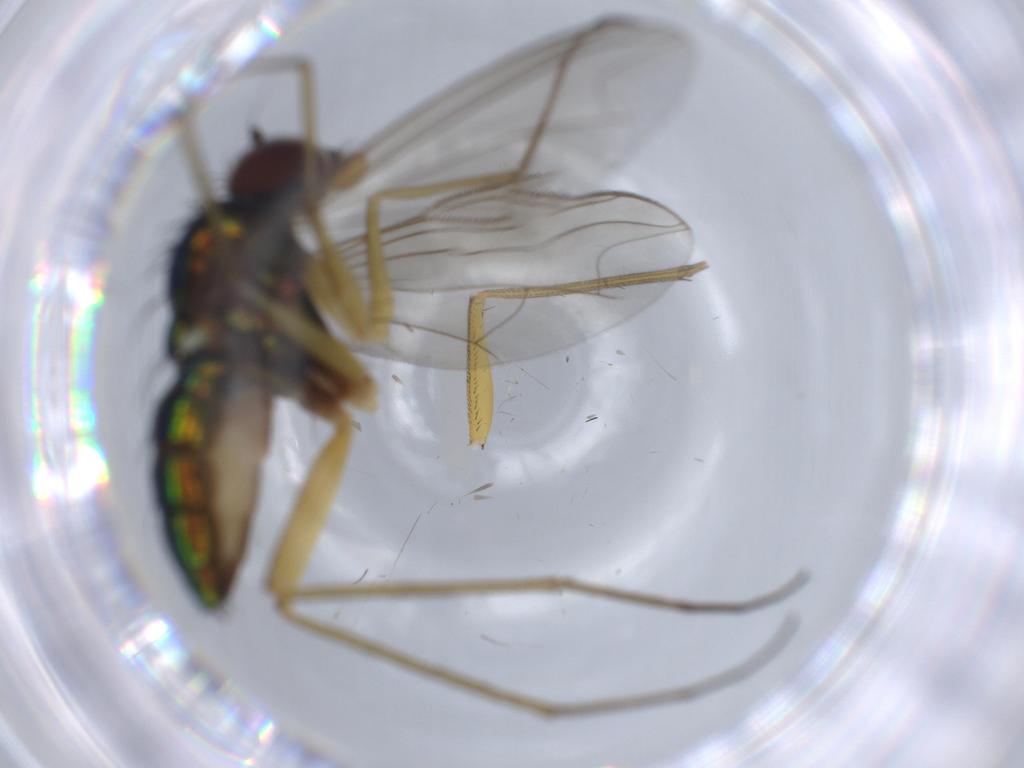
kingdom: Animalia
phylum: Arthropoda
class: Insecta
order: Diptera
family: Dolichopodidae
